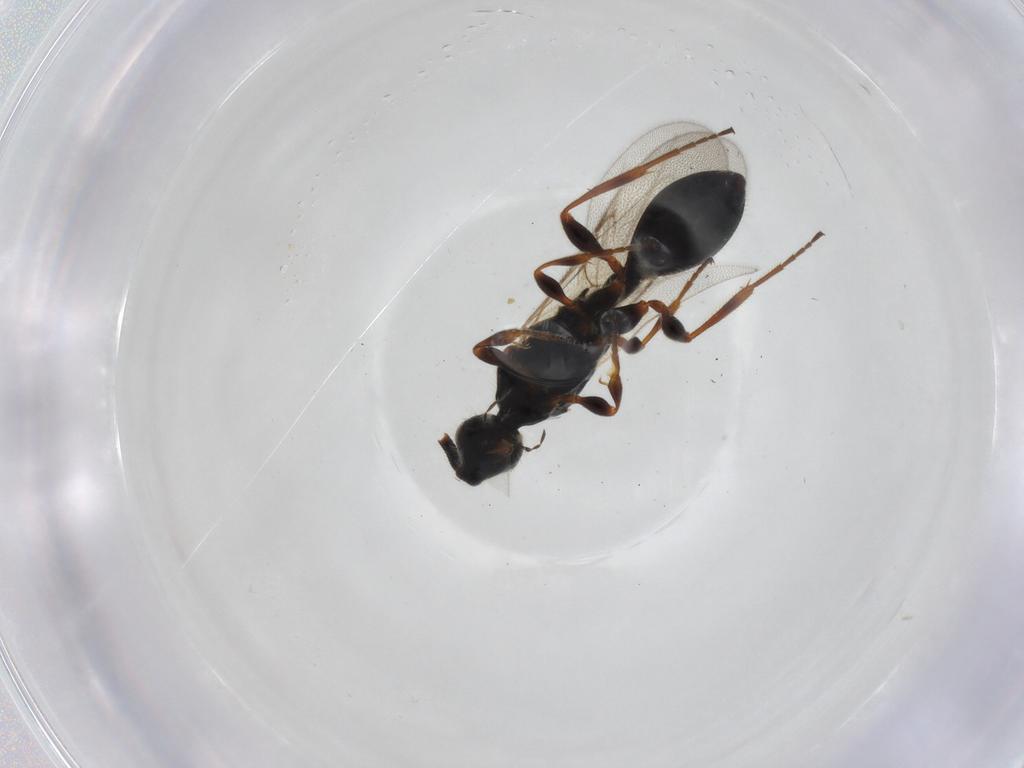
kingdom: Animalia
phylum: Arthropoda
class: Insecta
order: Hymenoptera
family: Diapriidae
